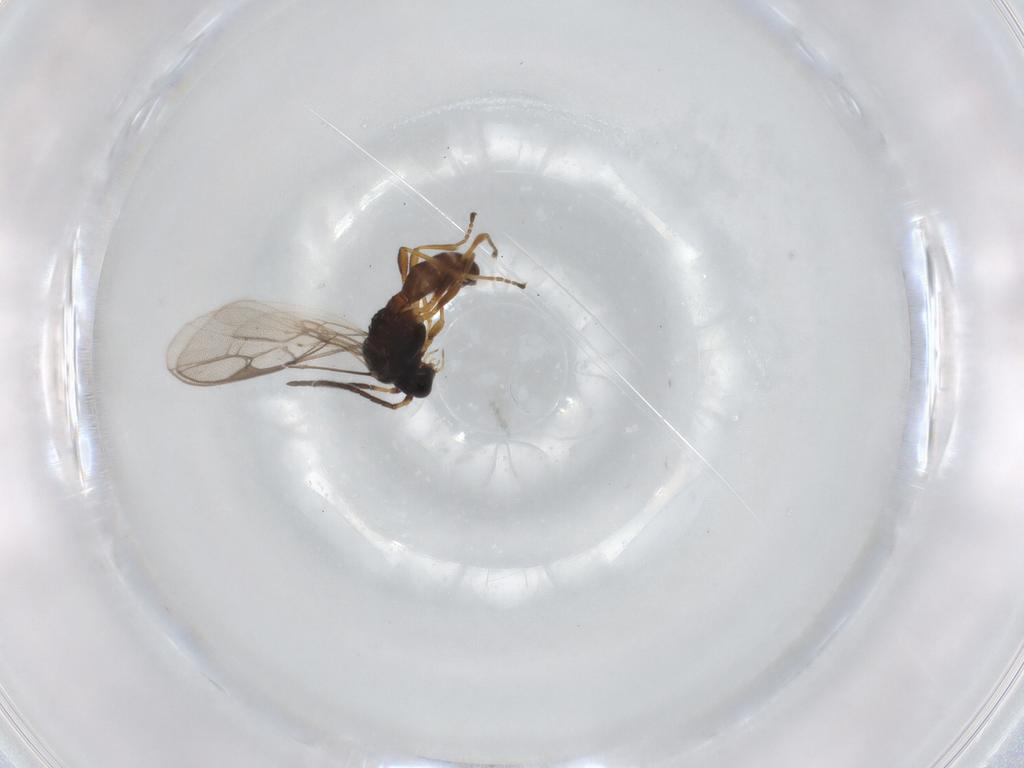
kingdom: Animalia
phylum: Arthropoda
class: Insecta
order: Hymenoptera
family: Braconidae
